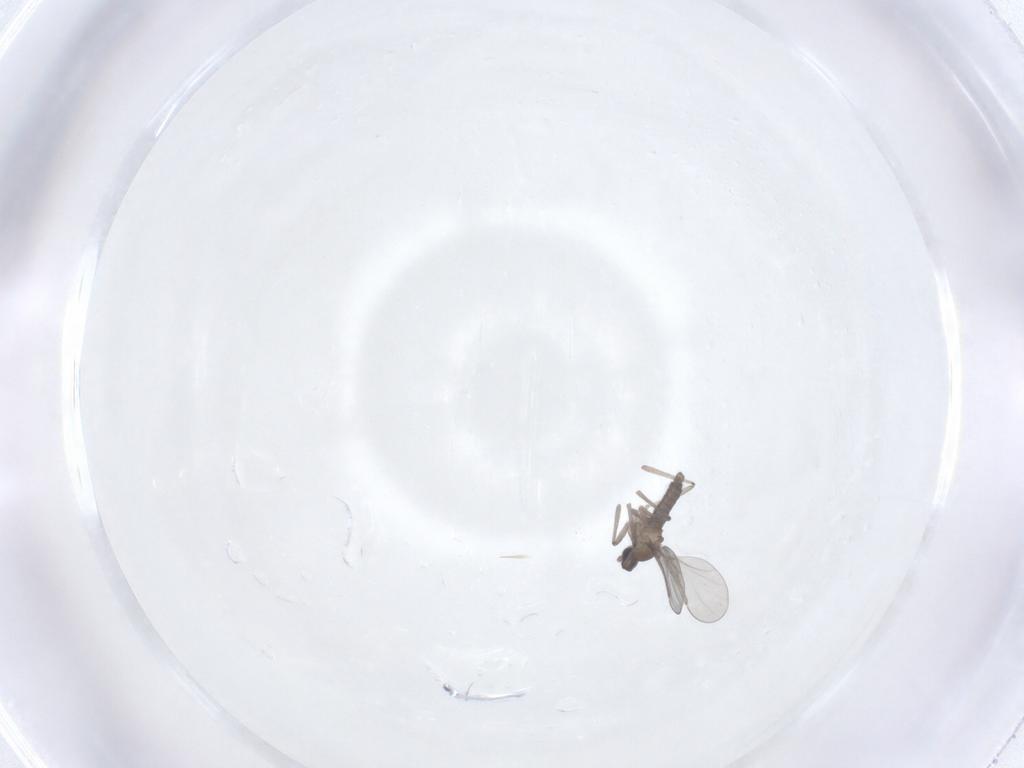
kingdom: Animalia
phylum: Arthropoda
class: Insecta
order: Diptera
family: Cecidomyiidae
